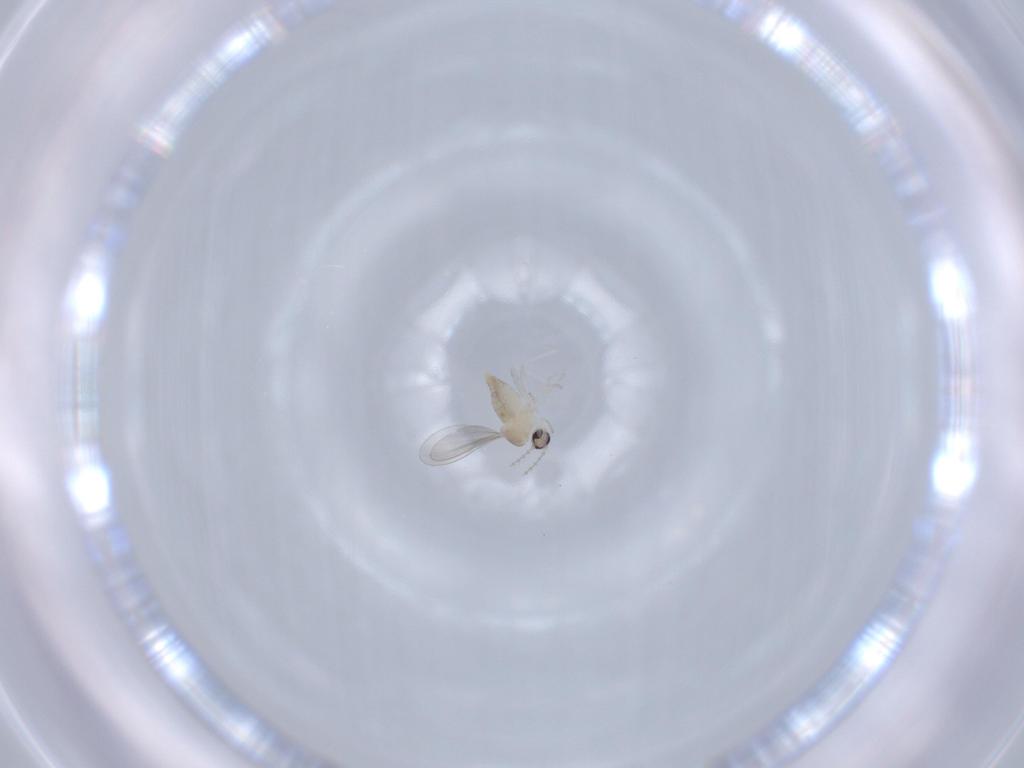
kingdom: Animalia
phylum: Arthropoda
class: Insecta
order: Diptera
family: Cecidomyiidae
